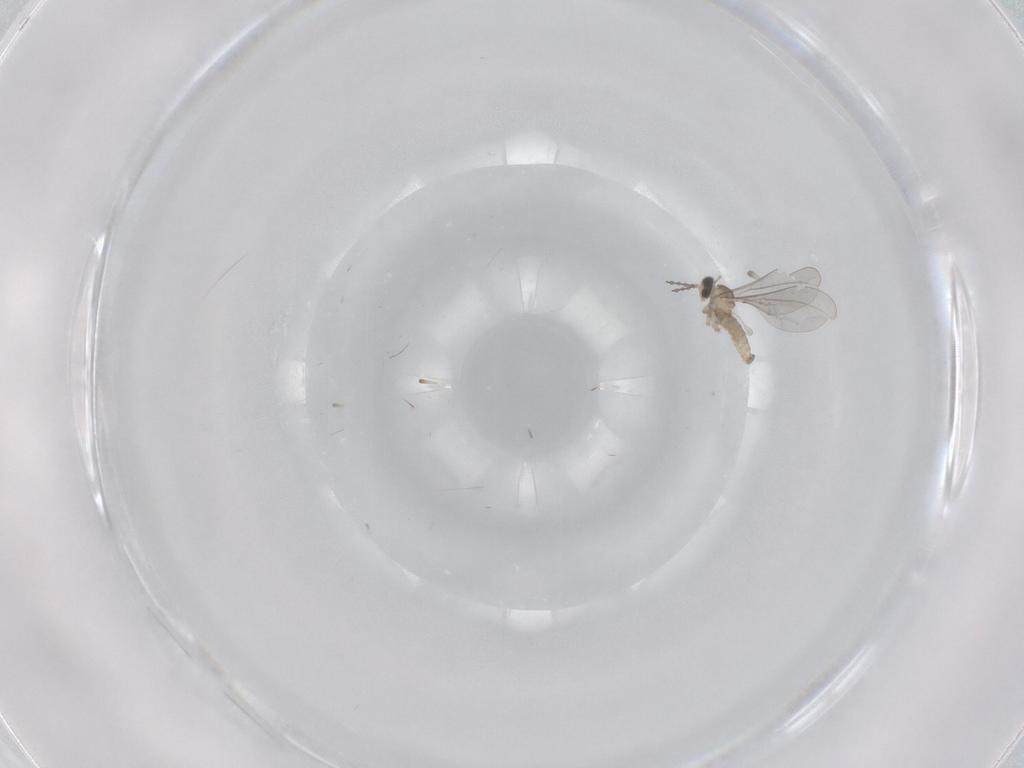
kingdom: Animalia
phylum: Arthropoda
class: Insecta
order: Diptera
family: Cecidomyiidae
